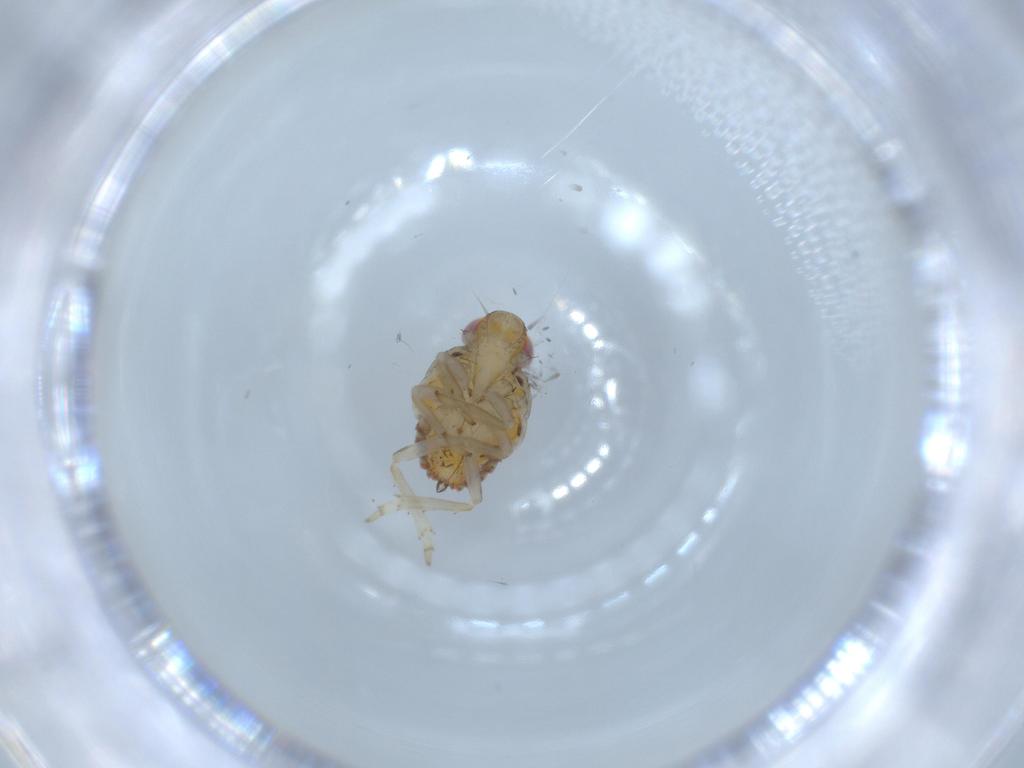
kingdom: Animalia
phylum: Arthropoda
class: Insecta
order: Hemiptera
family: Issidae
